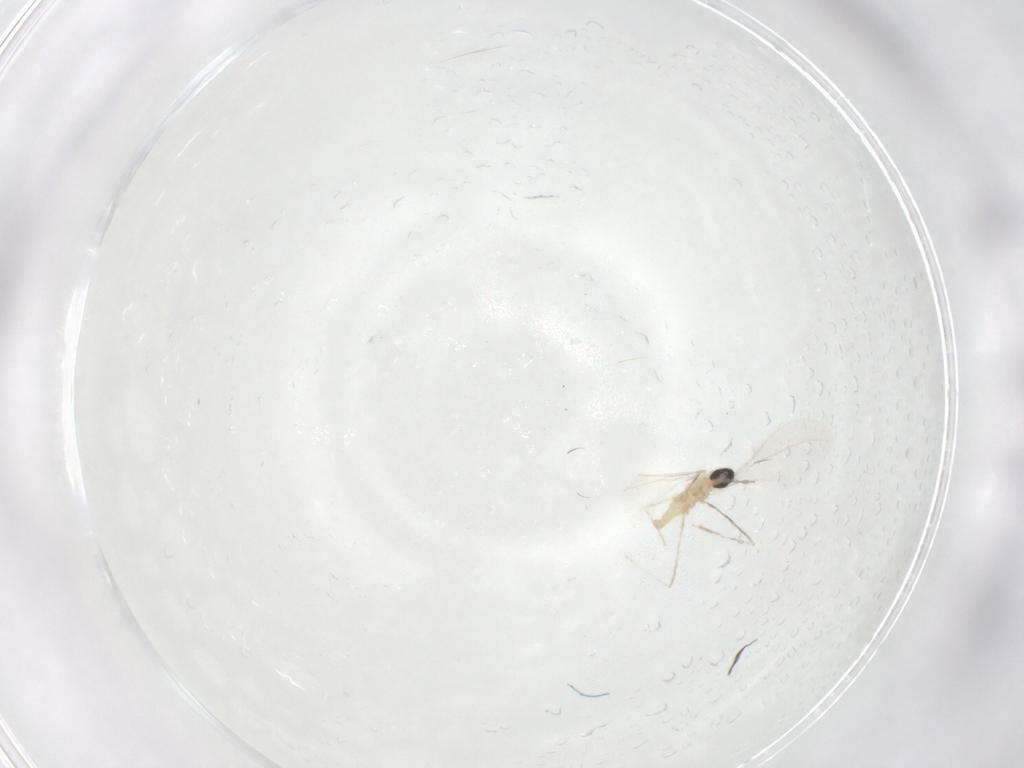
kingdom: Animalia
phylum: Arthropoda
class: Insecta
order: Diptera
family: Cecidomyiidae
